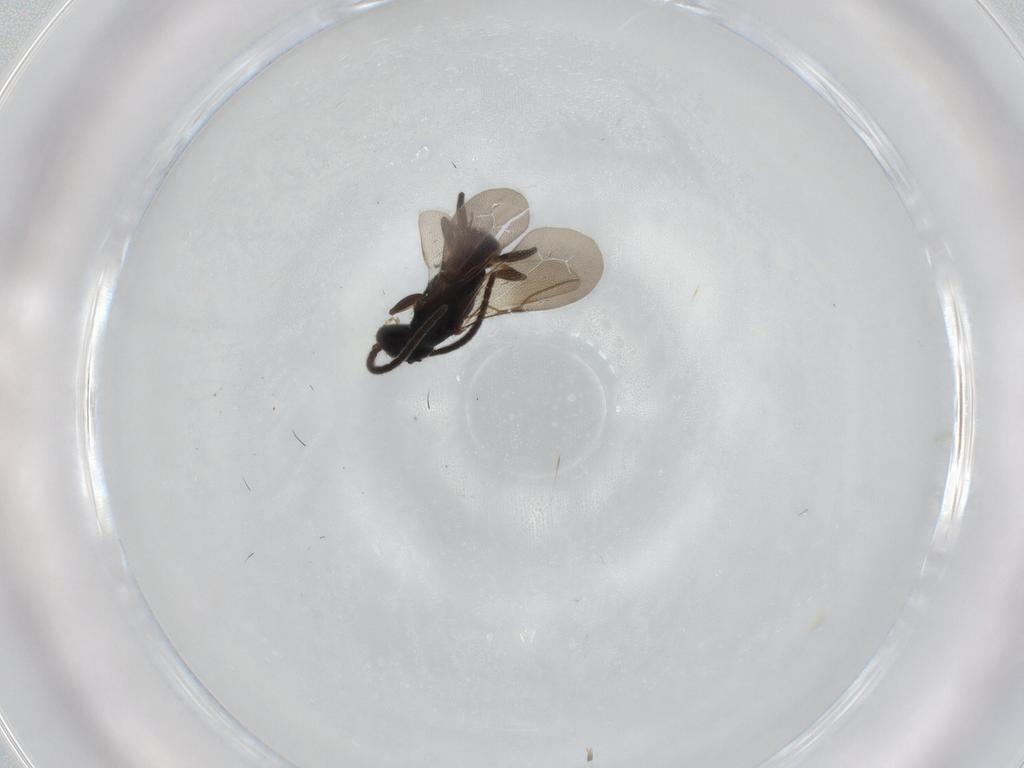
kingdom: Animalia
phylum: Arthropoda
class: Insecta
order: Hymenoptera
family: Bethylidae
